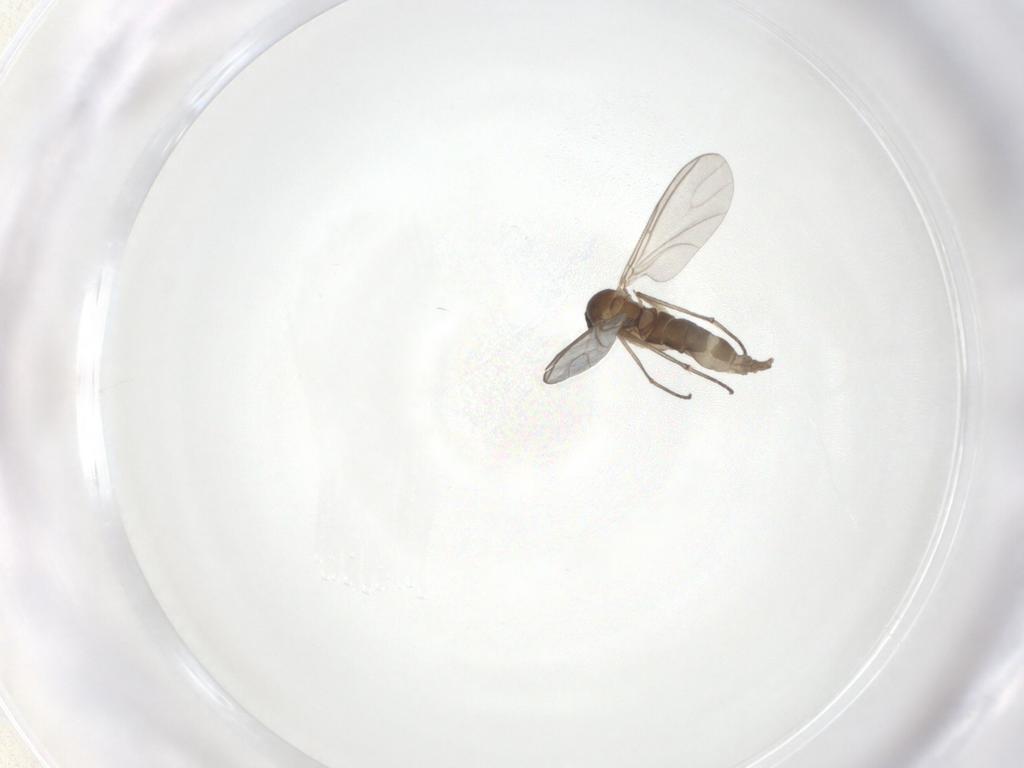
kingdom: Animalia
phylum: Arthropoda
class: Insecta
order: Diptera
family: Sciaridae
